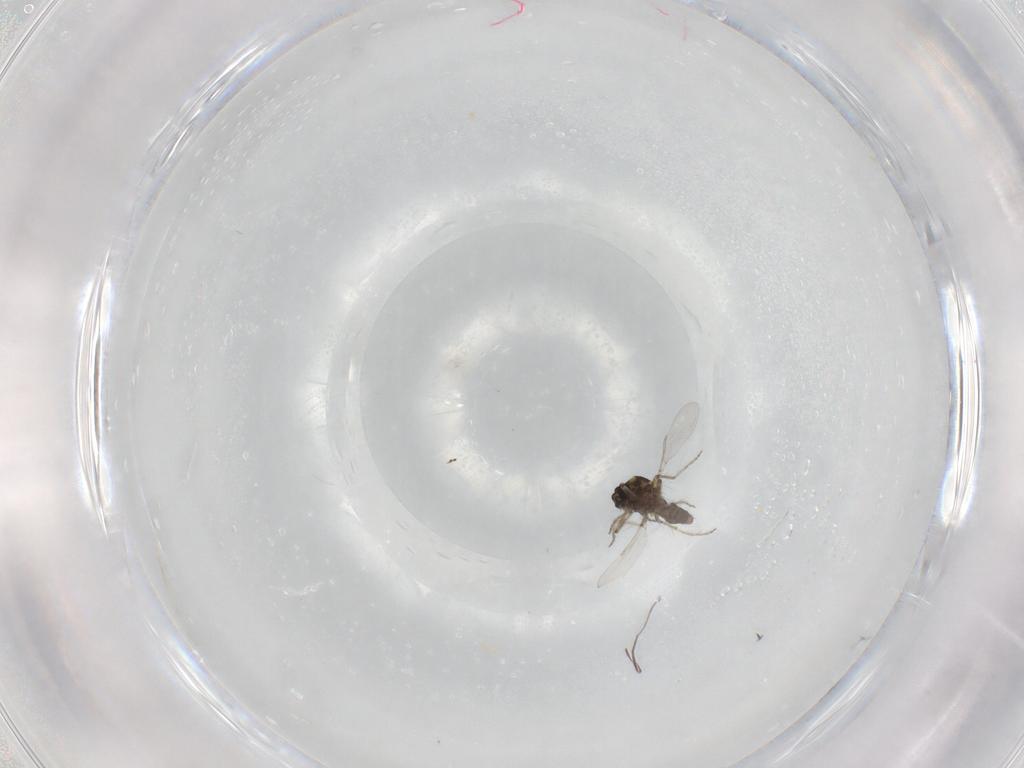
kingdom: Animalia
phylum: Arthropoda
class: Insecta
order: Diptera
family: Ceratopogonidae
